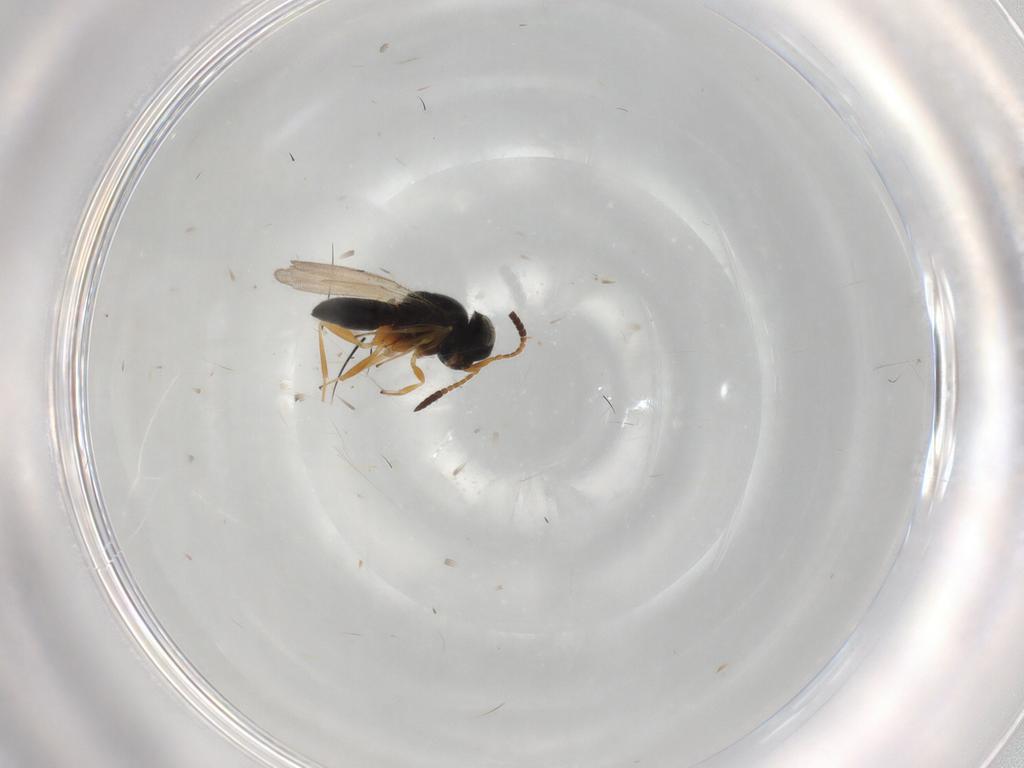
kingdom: Animalia
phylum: Arthropoda
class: Insecta
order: Coleoptera
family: Curculionidae
